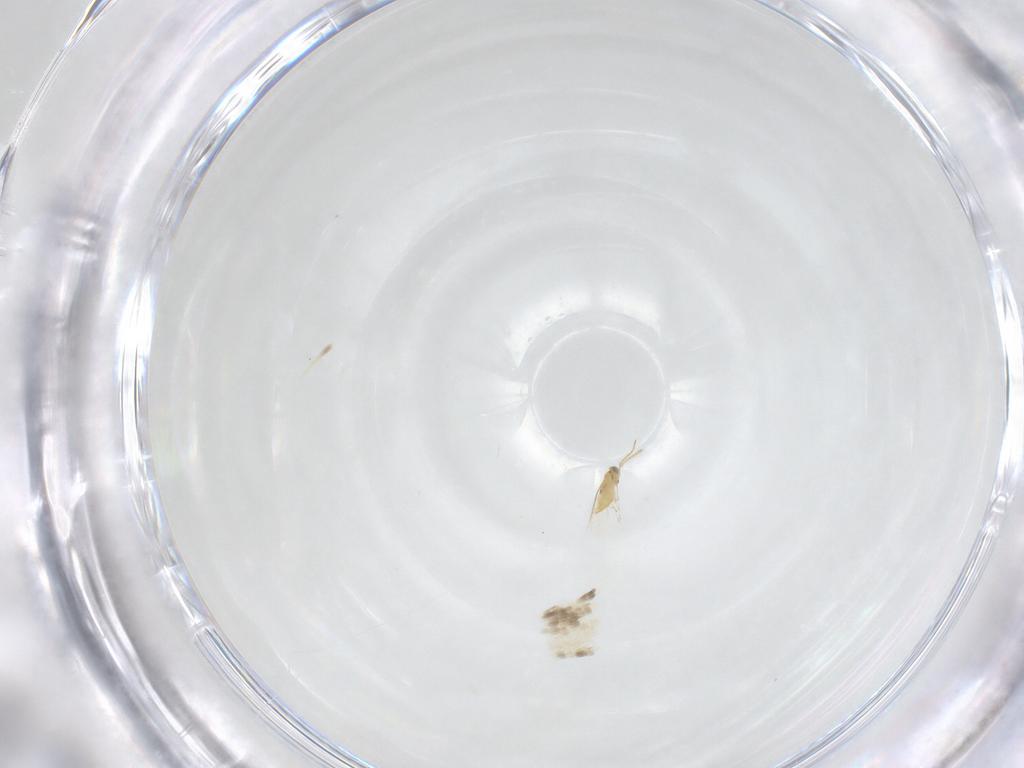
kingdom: Animalia
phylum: Arthropoda
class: Insecta
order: Hymenoptera
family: Aphelinidae
